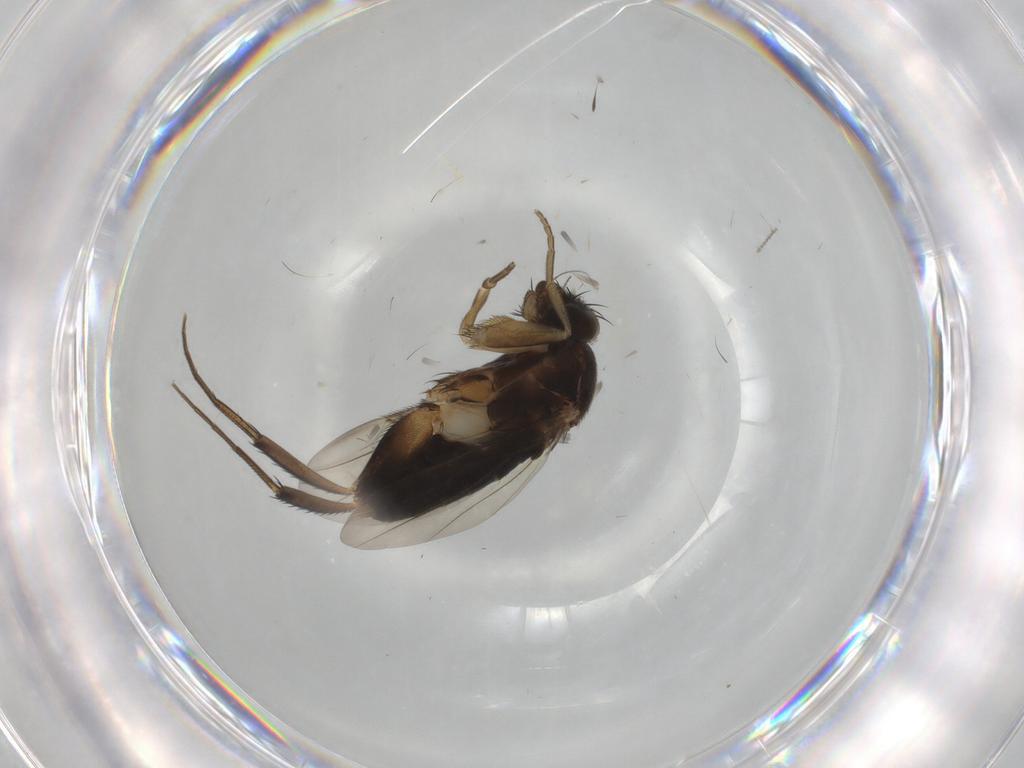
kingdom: Animalia
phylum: Arthropoda
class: Insecta
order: Diptera
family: Phoridae
